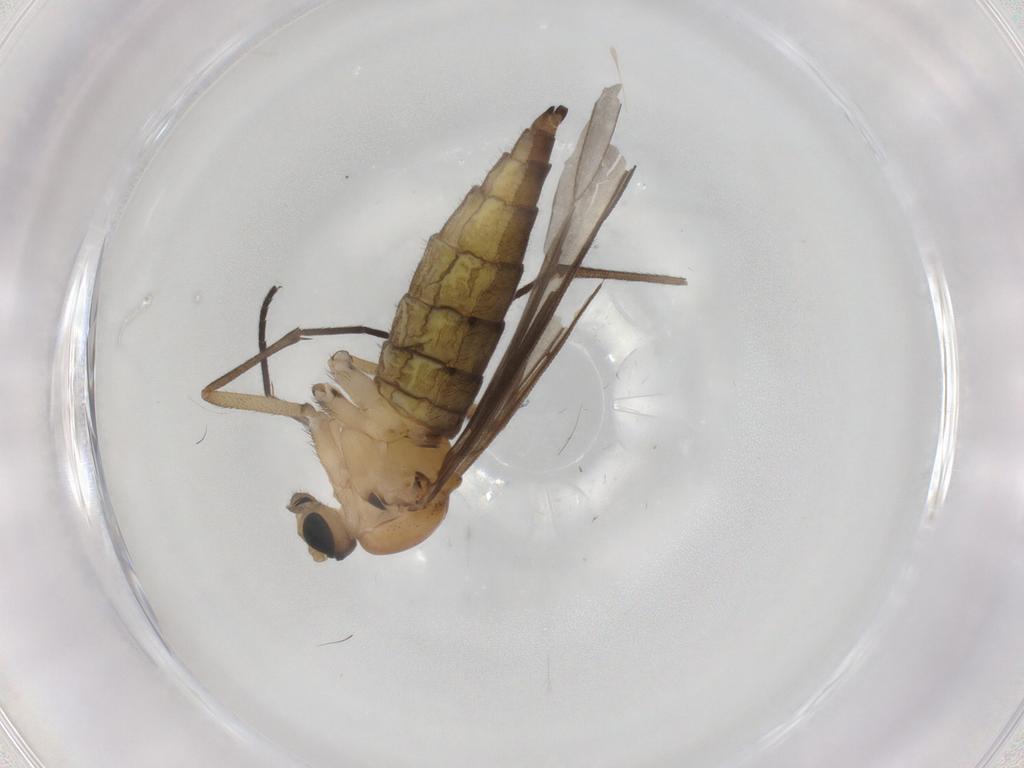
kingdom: Animalia
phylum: Arthropoda
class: Insecta
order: Diptera
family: Sciaridae
